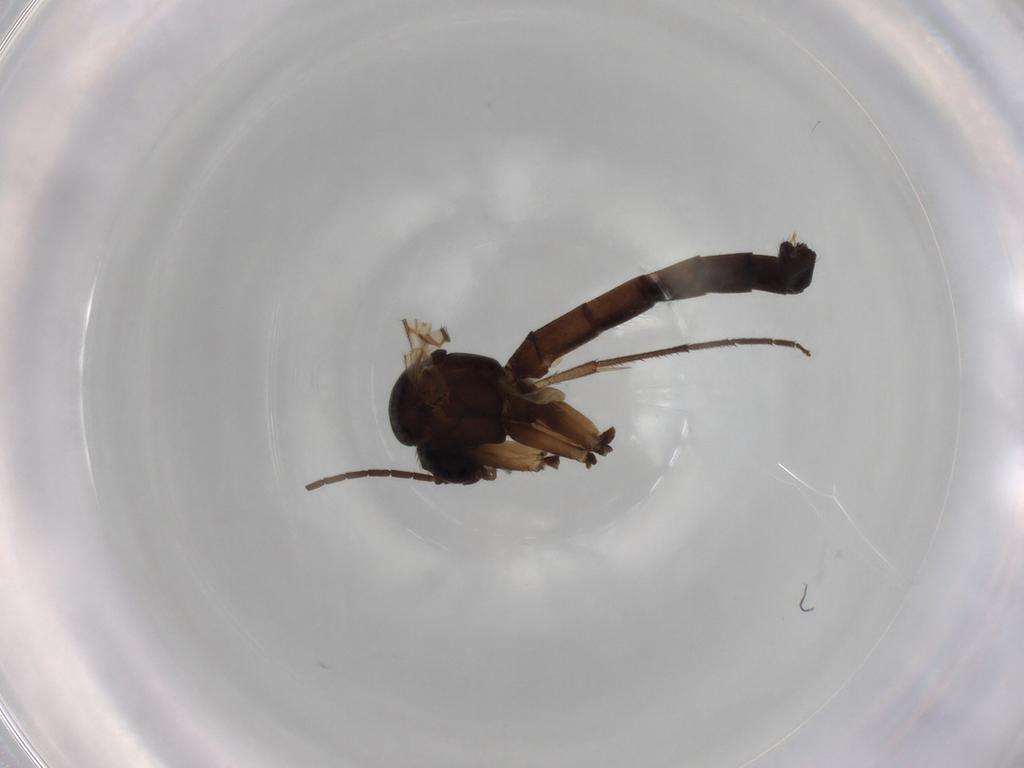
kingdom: Animalia
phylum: Arthropoda
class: Insecta
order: Diptera
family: Mycetophilidae
